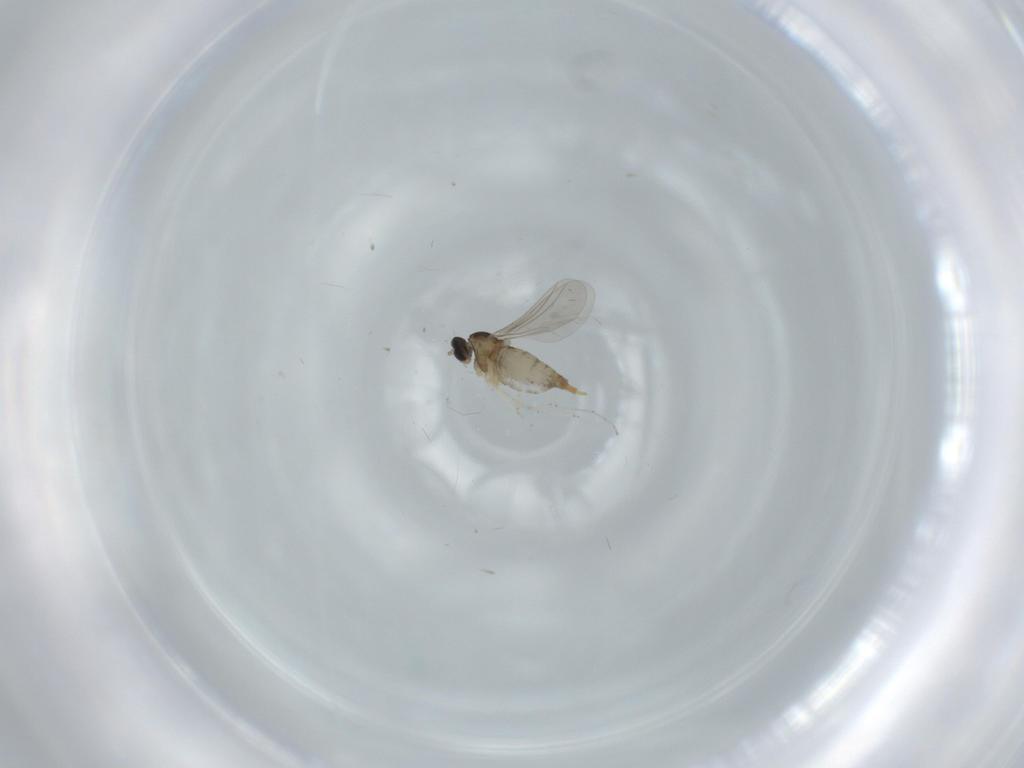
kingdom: Animalia
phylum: Arthropoda
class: Insecta
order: Diptera
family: Cecidomyiidae
